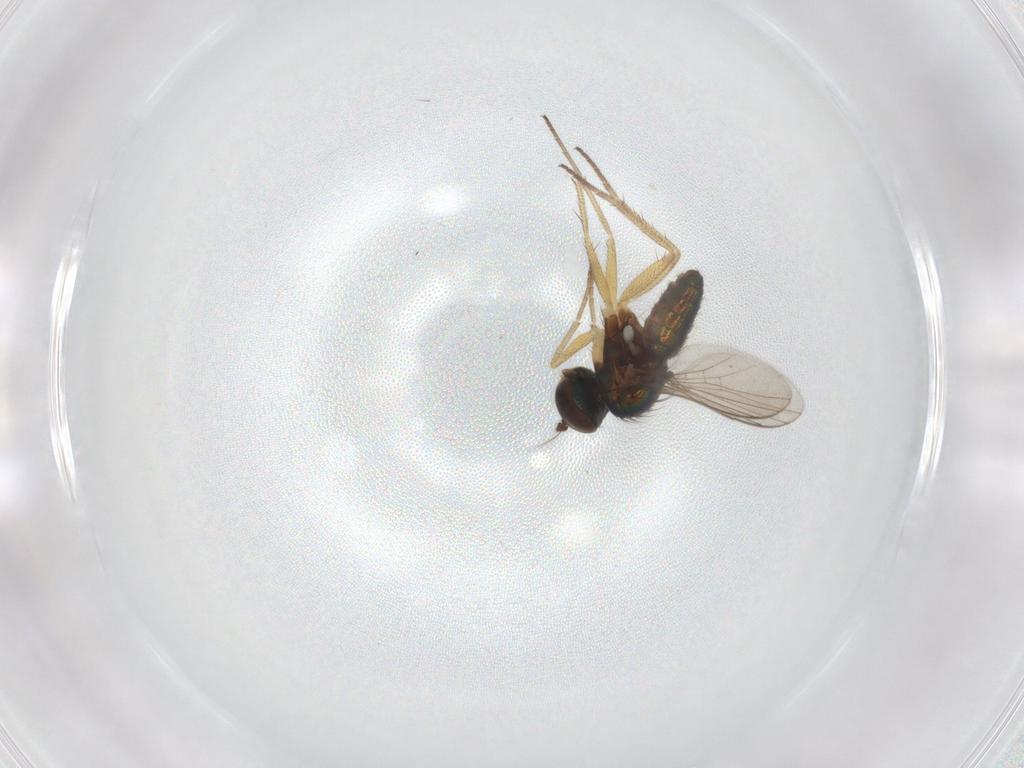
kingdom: Animalia
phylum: Arthropoda
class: Insecta
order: Diptera
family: Dolichopodidae
